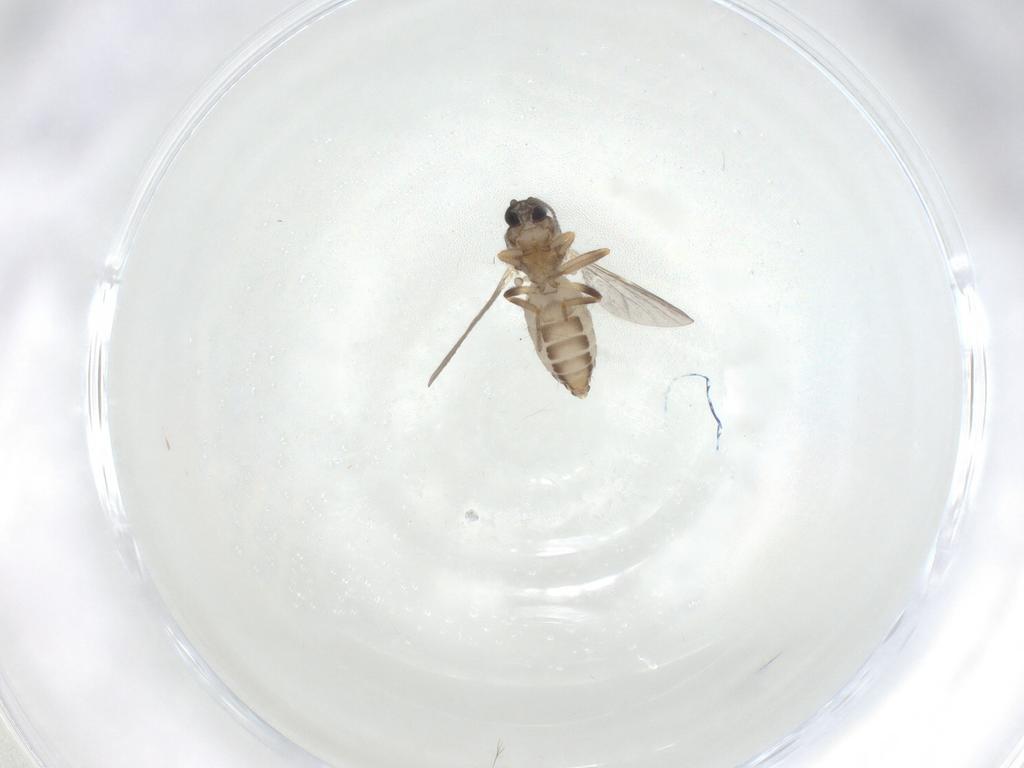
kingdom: Animalia
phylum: Arthropoda
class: Insecta
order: Diptera
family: Ceratopogonidae
